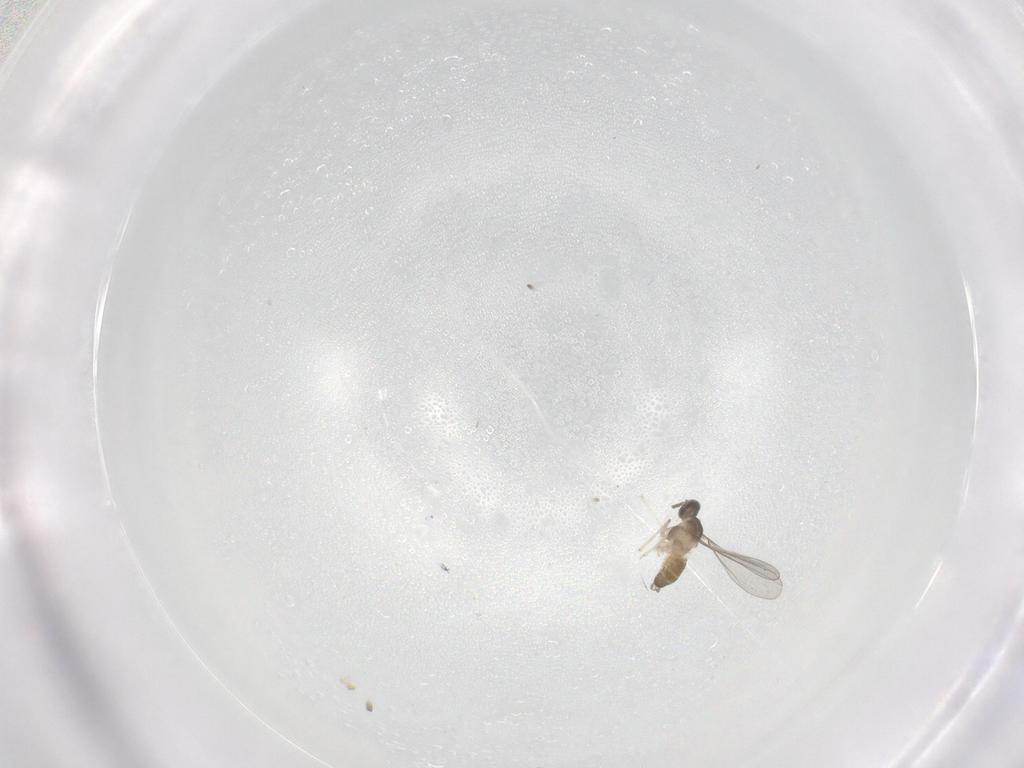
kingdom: Animalia
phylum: Arthropoda
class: Insecta
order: Diptera
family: Cecidomyiidae
